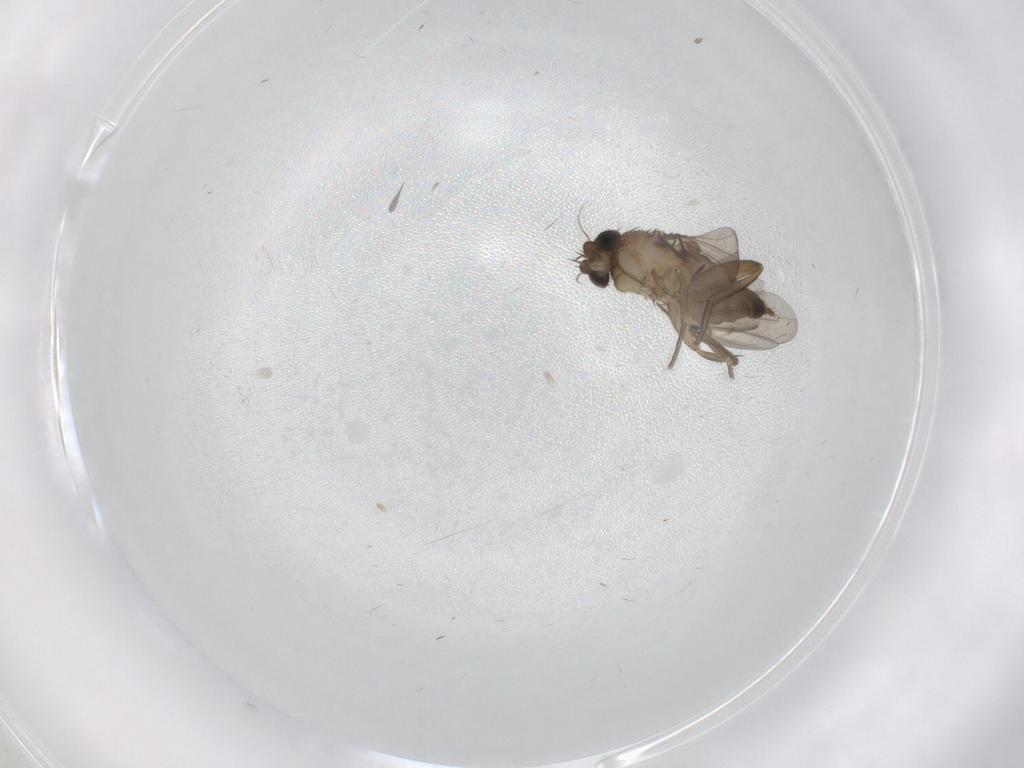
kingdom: Animalia
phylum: Arthropoda
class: Insecta
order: Diptera
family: Phoridae
